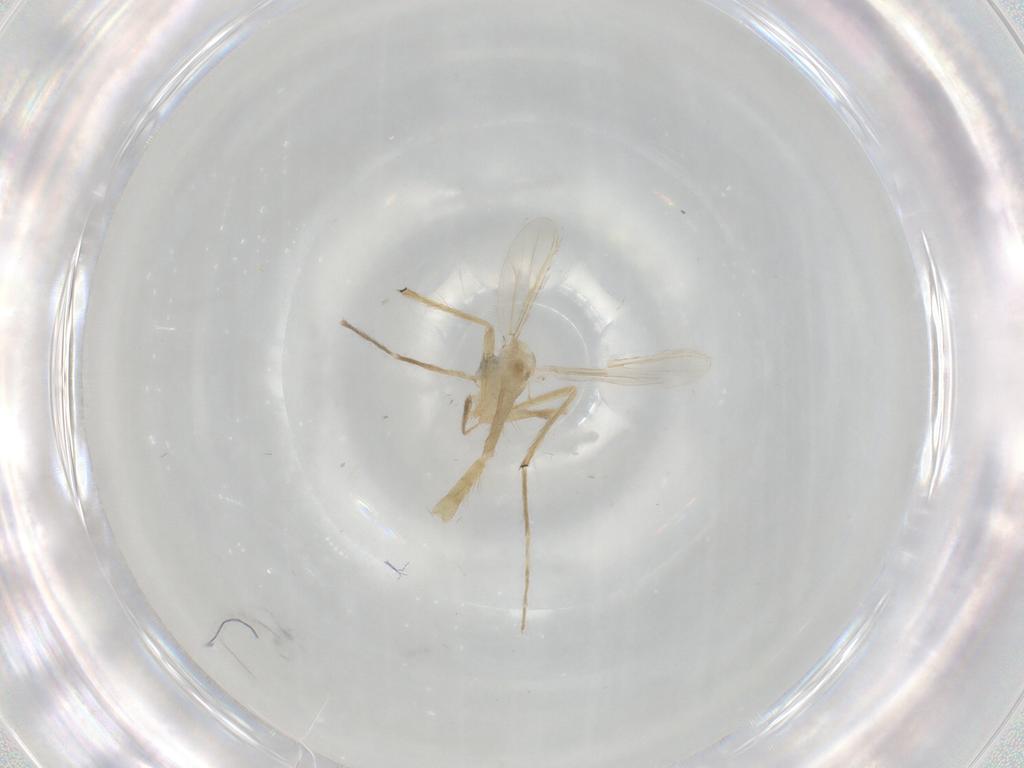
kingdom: Animalia
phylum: Arthropoda
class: Insecta
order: Diptera
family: Chironomidae
